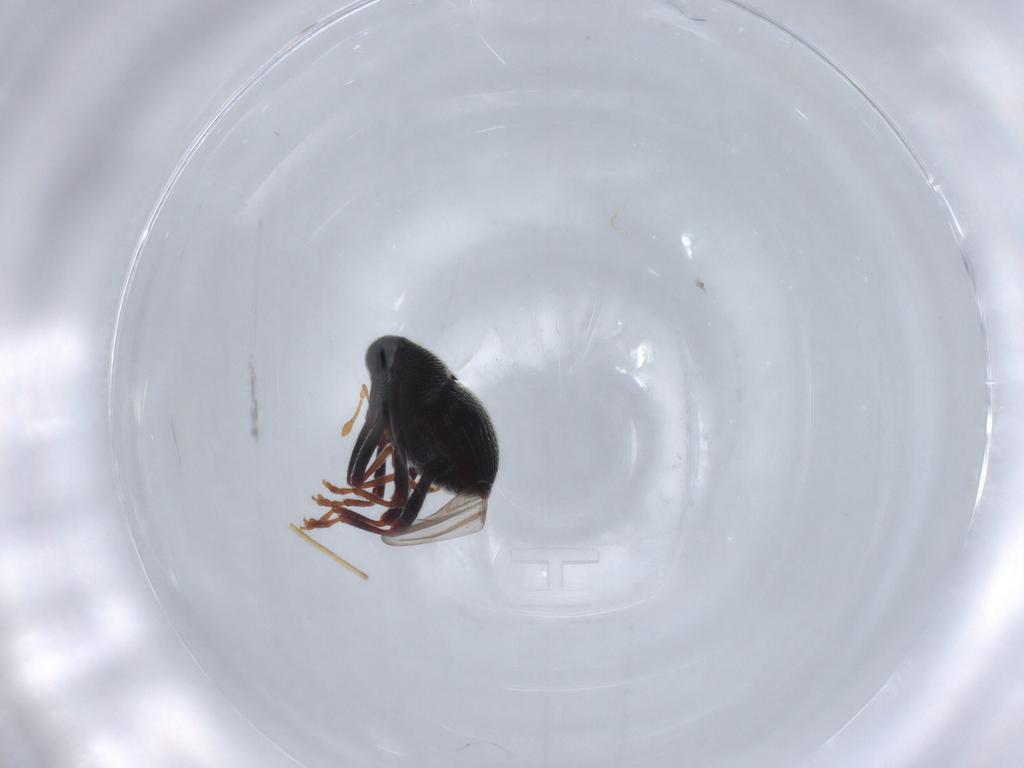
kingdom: Animalia
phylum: Arthropoda
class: Insecta
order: Coleoptera
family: Curculionidae
